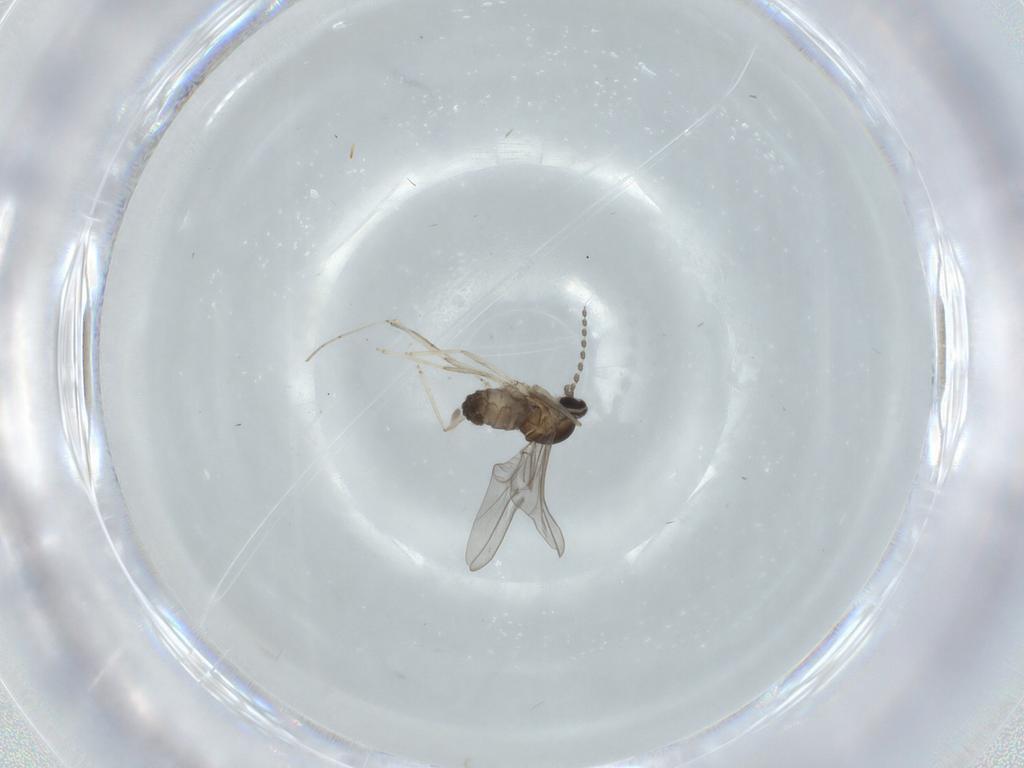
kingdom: Animalia
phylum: Arthropoda
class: Insecta
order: Diptera
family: Cecidomyiidae
